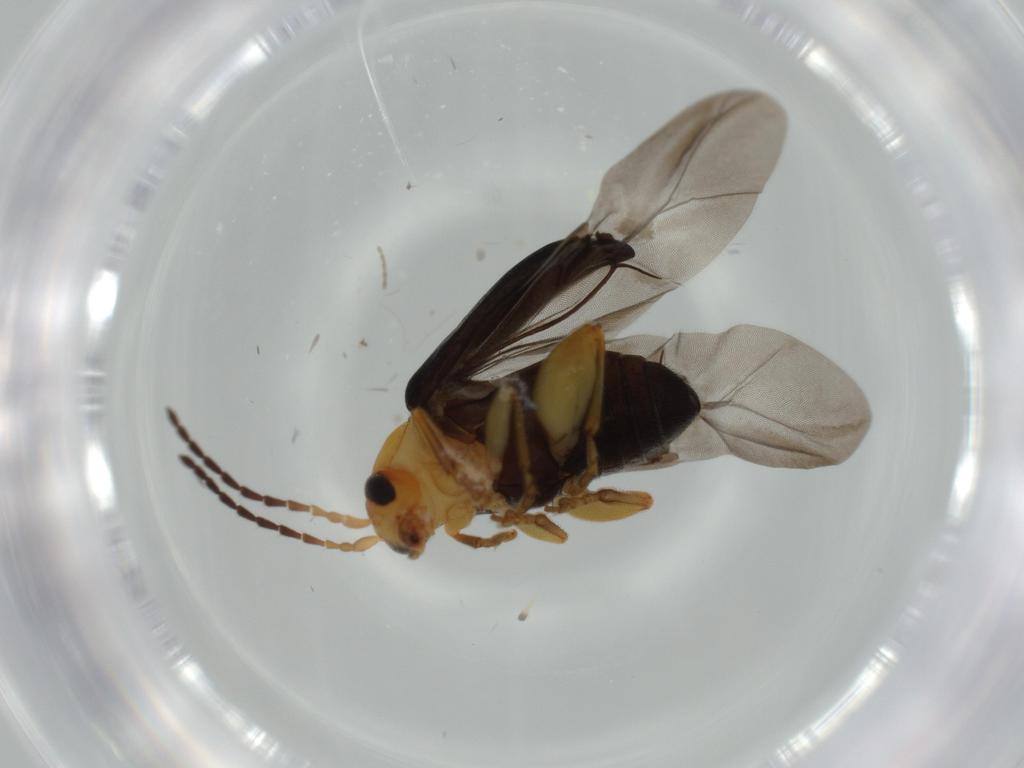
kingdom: Animalia
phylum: Arthropoda
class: Insecta
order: Coleoptera
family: Chrysomelidae
